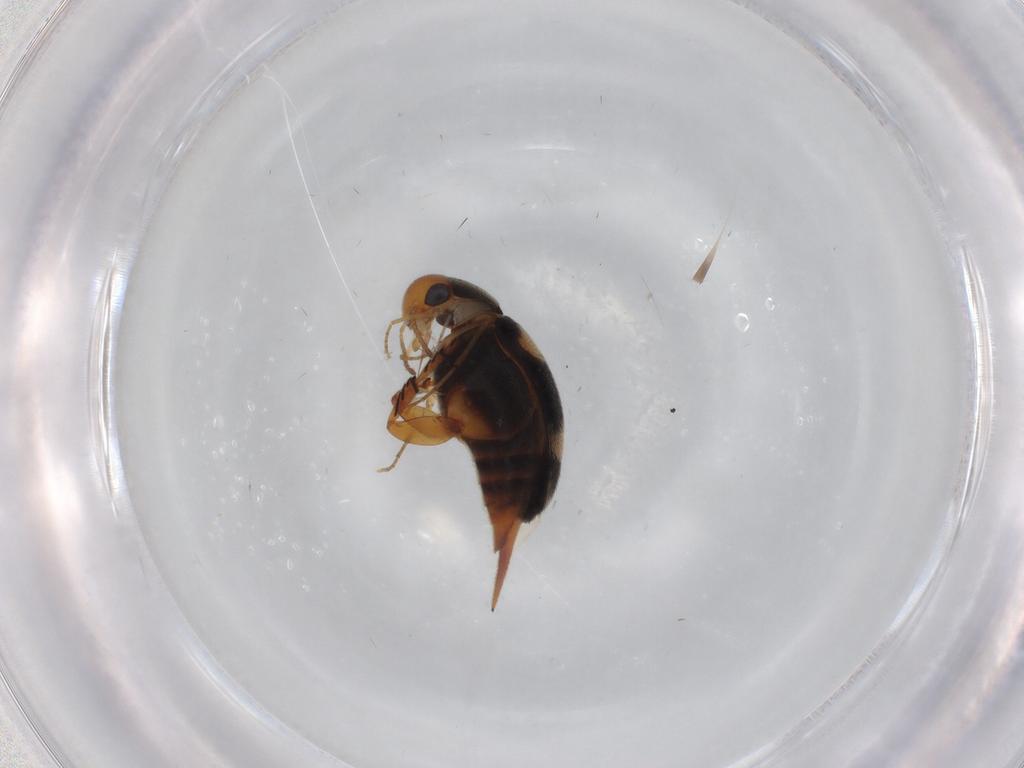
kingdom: Animalia
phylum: Arthropoda
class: Insecta
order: Coleoptera
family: Mordellidae
